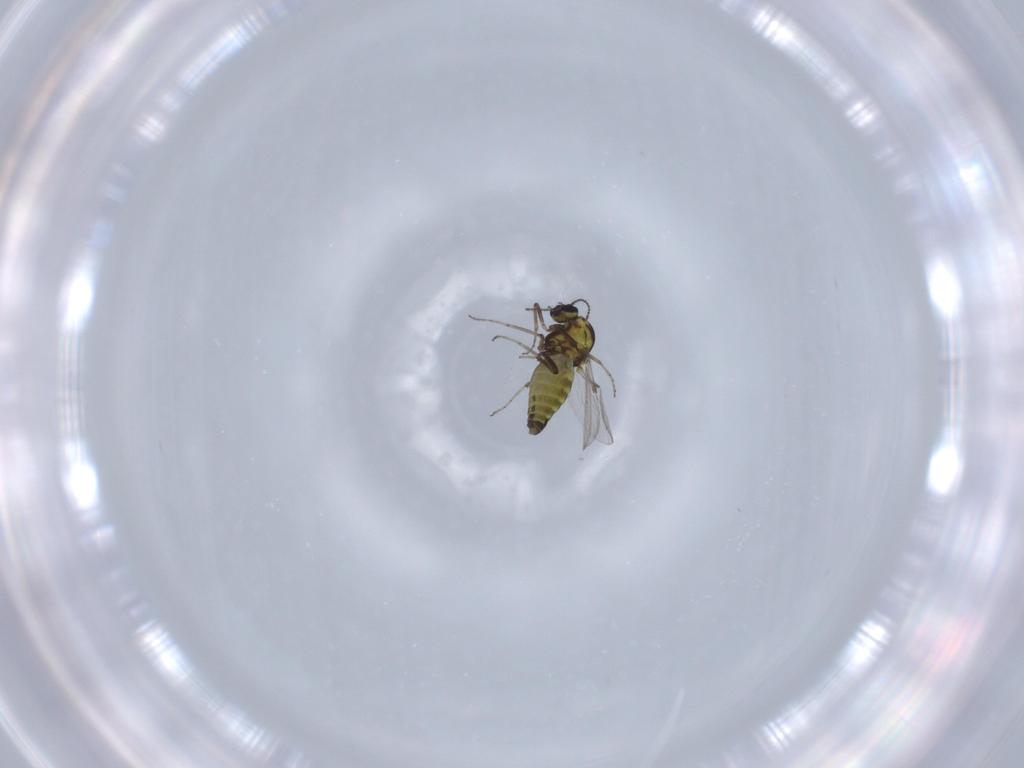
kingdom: Animalia
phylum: Arthropoda
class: Insecta
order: Diptera
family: Ceratopogonidae
